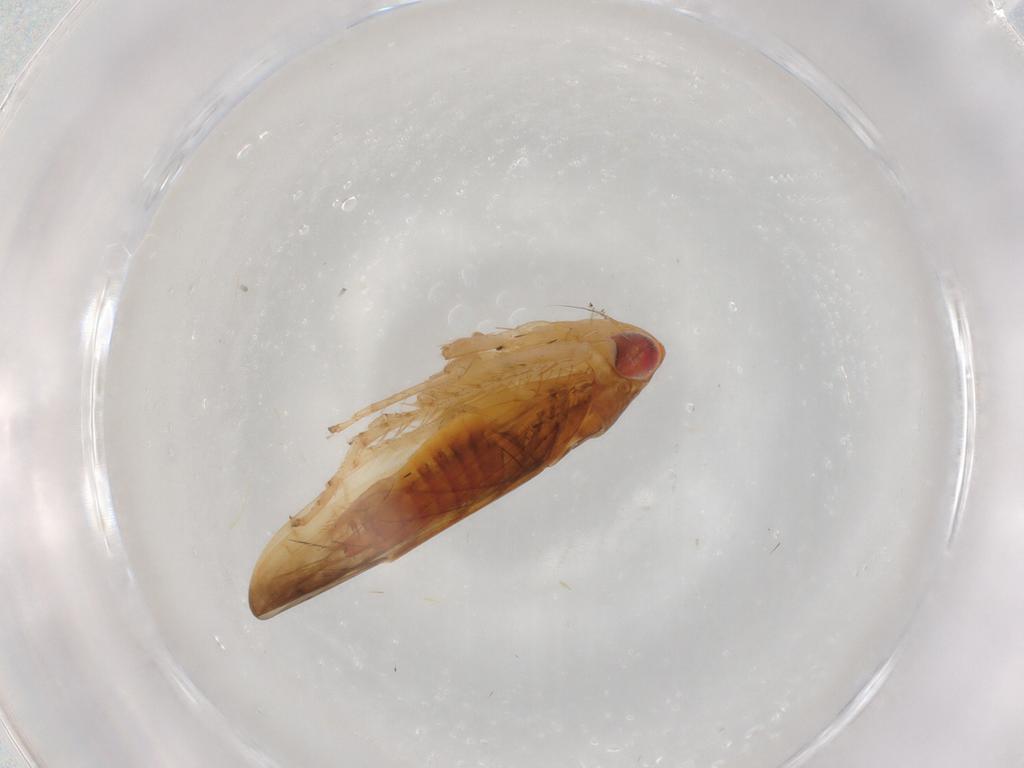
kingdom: Animalia
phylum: Arthropoda
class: Insecta
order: Hemiptera
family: Cicadellidae
